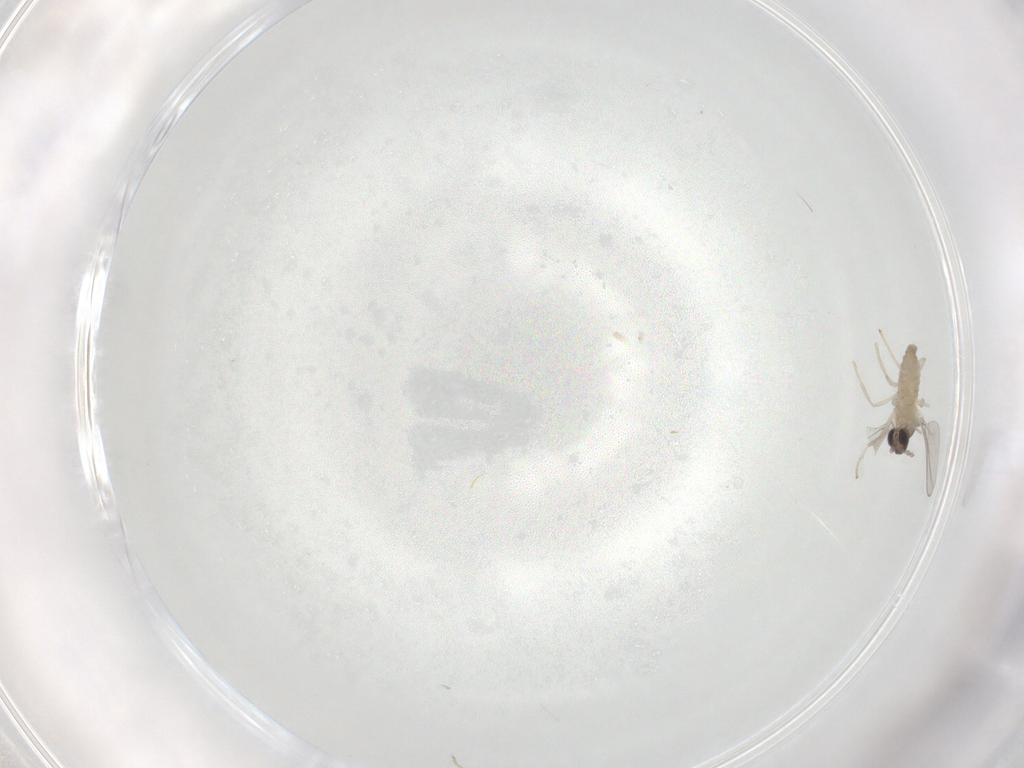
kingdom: Animalia
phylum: Arthropoda
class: Insecta
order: Diptera
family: Cecidomyiidae
